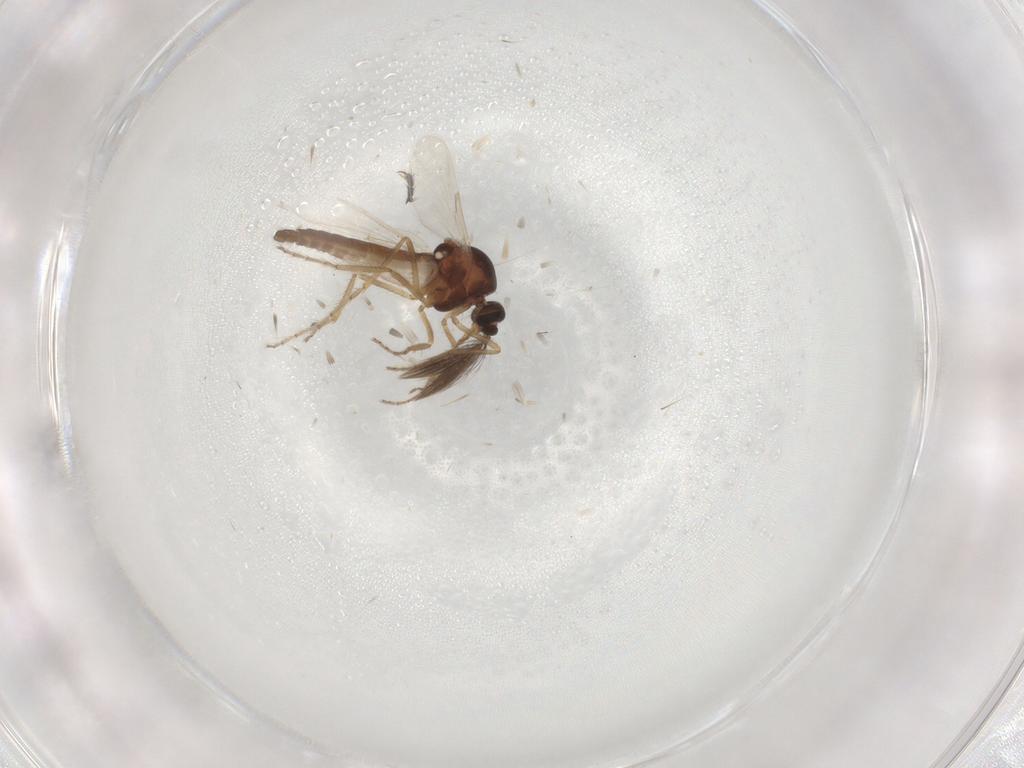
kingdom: Animalia
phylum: Arthropoda
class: Insecta
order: Diptera
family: Ceratopogonidae
